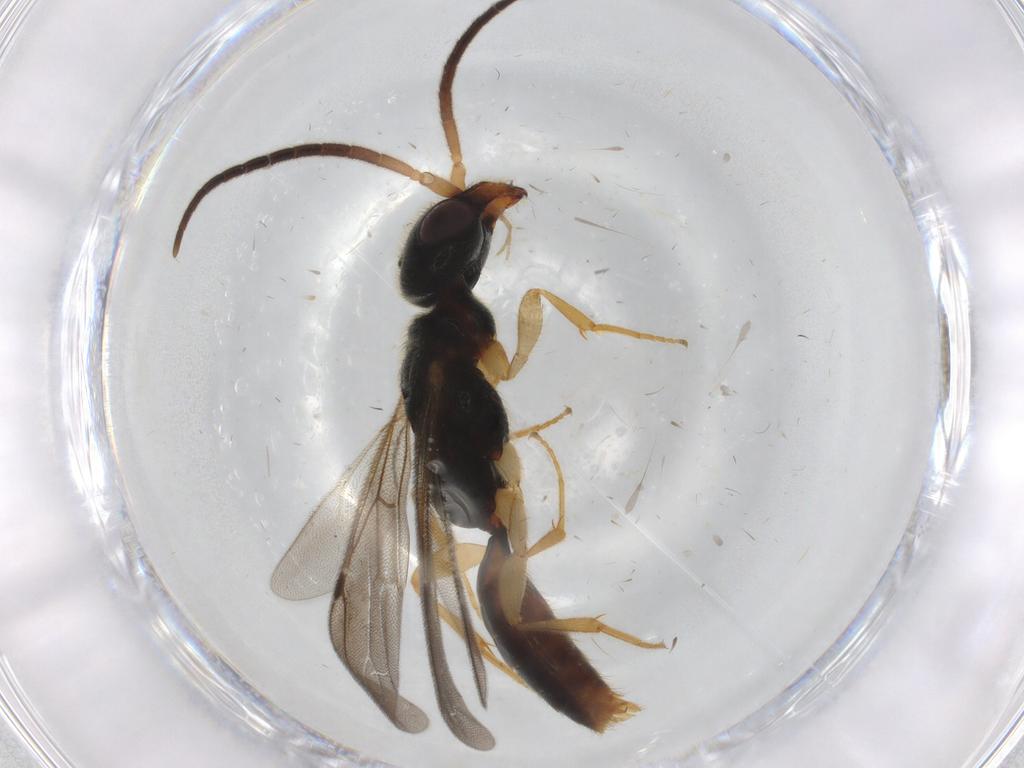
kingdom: Animalia
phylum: Arthropoda
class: Insecta
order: Hymenoptera
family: Bethylidae
